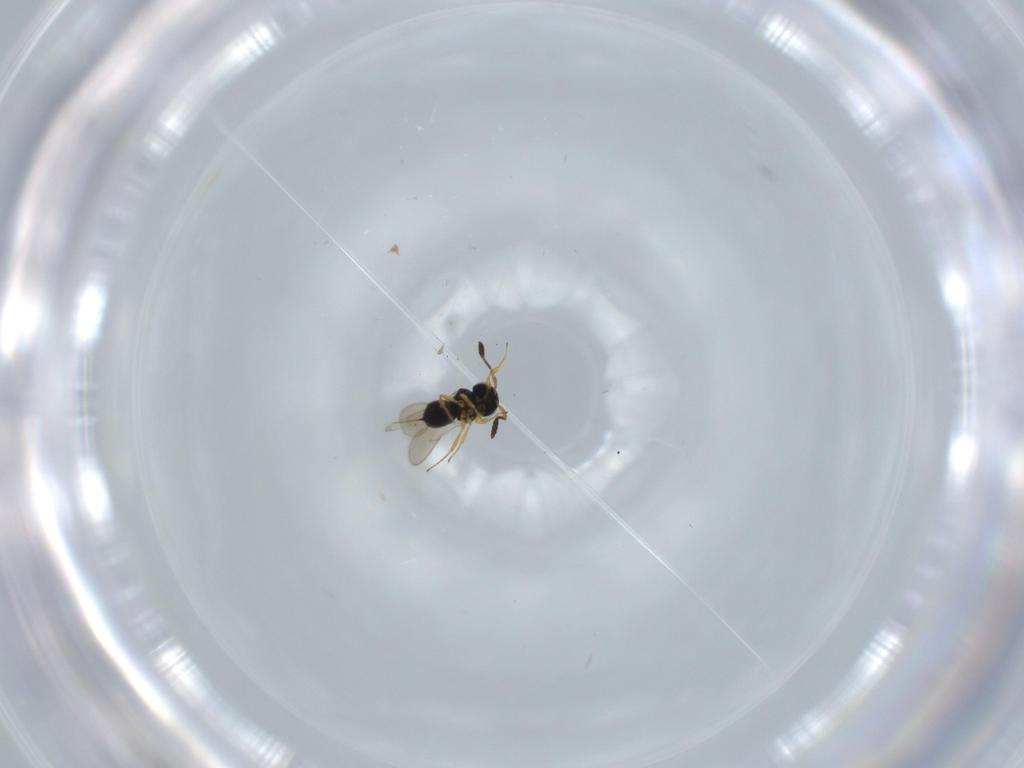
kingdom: Animalia
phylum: Arthropoda
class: Insecta
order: Hymenoptera
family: Scelionidae
